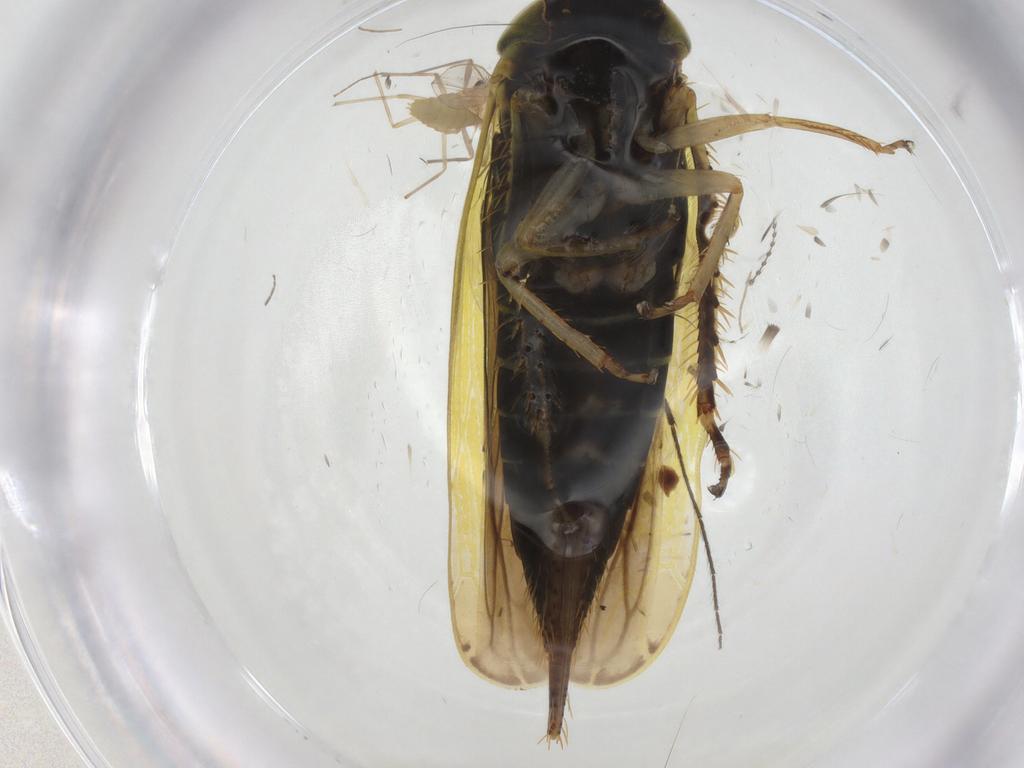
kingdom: Animalia
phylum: Arthropoda
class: Insecta
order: Hemiptera
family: Cicadellidae
